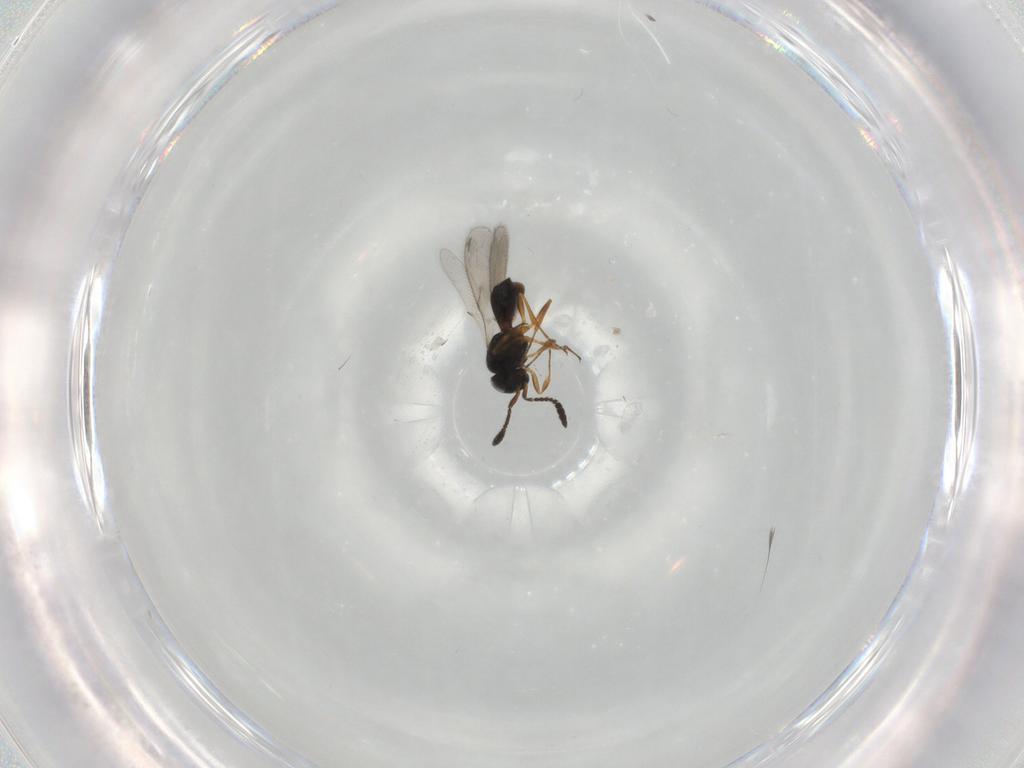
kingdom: Animalia
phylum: Arthropoda
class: Insecta
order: Hymenoptera
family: Scelionidae
